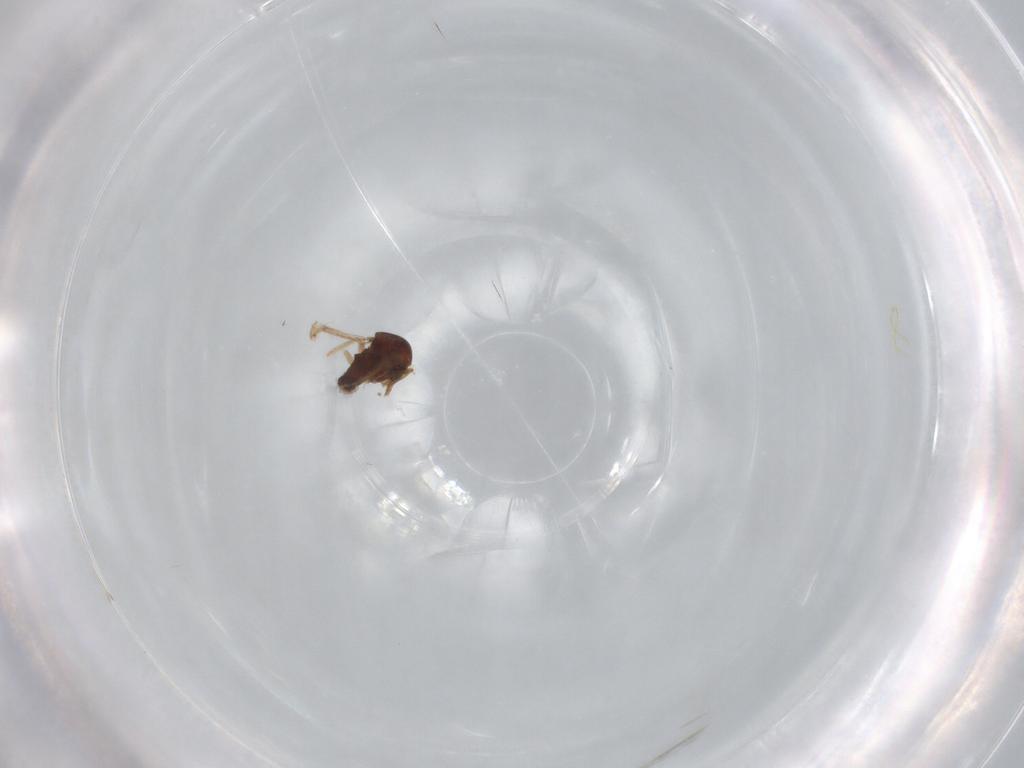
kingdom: Animalia
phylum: Arthropoda
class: Insecta
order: Diptera
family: Ceratopogonidae
